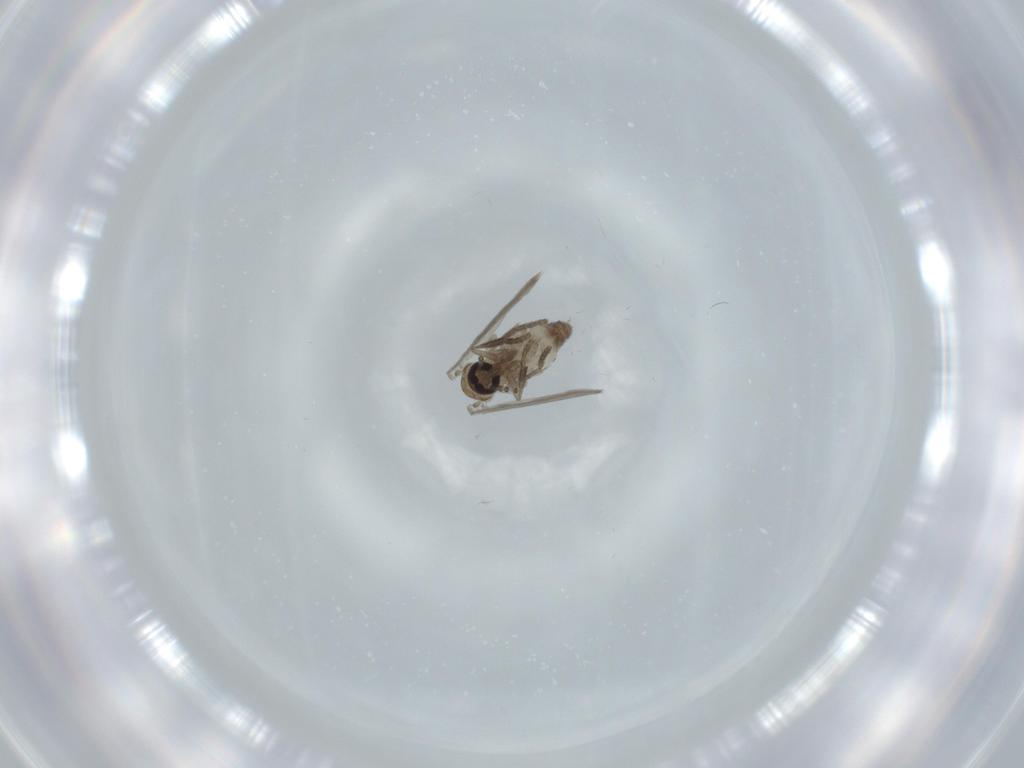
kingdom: Animalia
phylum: Arthropoda
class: Insecta
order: Diptera
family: Psychodidae
